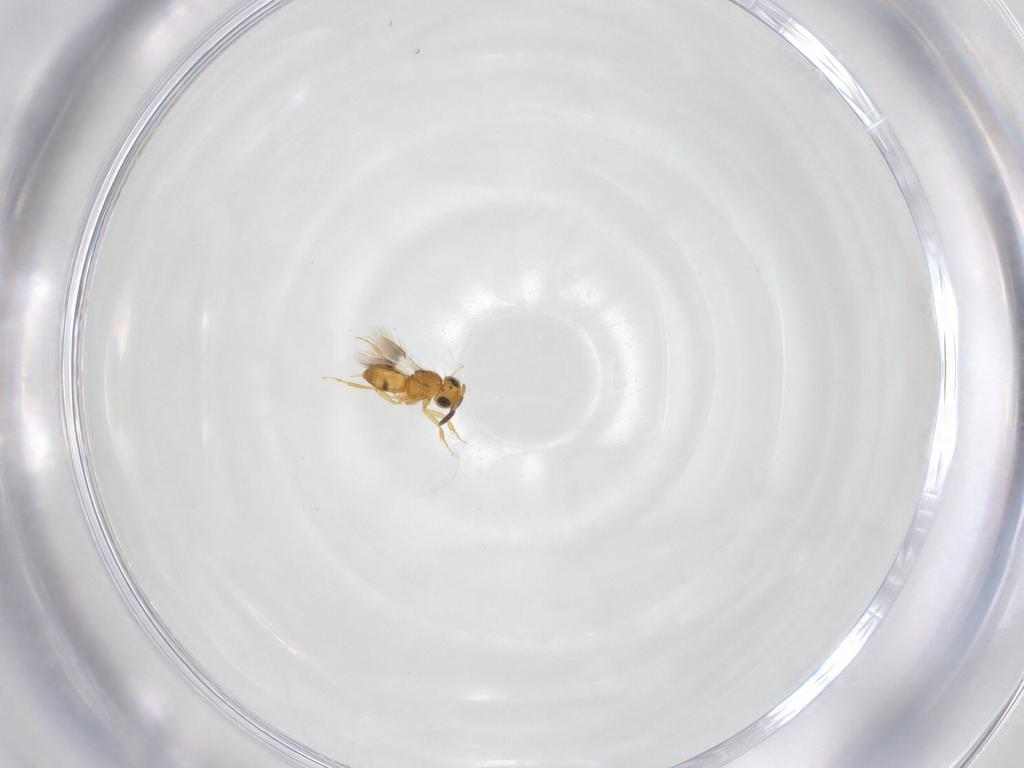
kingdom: Animalia
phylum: Arthropoda
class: Insecta
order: Hymenoptera
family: Scelionidae
